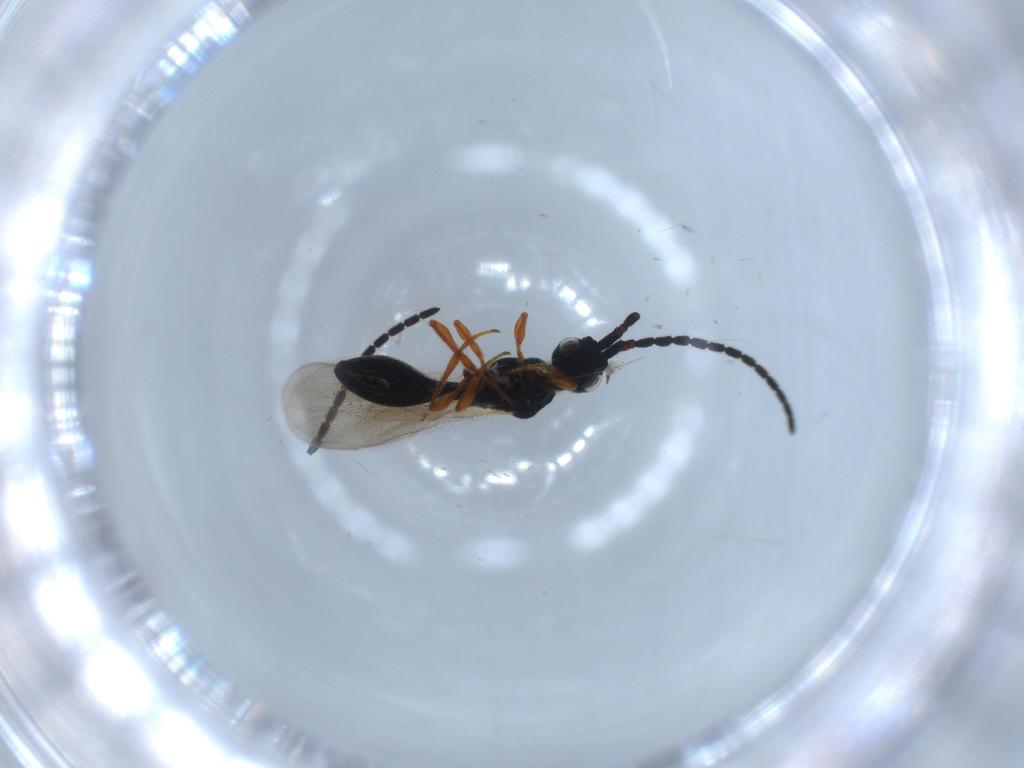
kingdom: Animalia
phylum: Arthropoda
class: Insecta
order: Hymenoptera
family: Diapriidae
